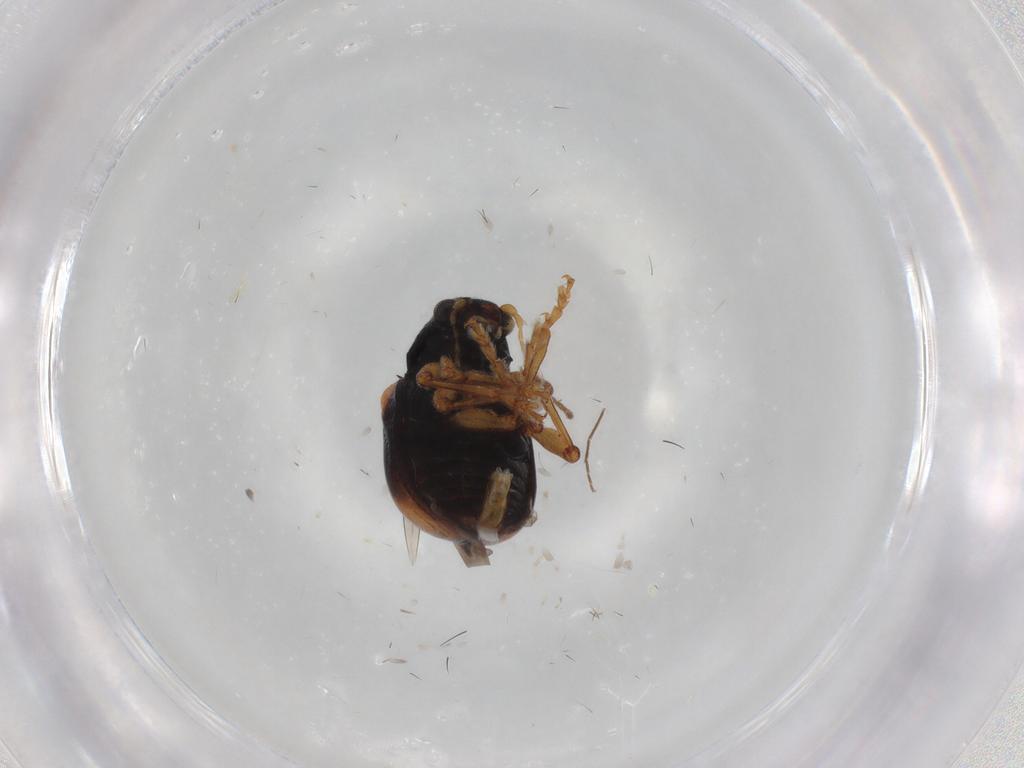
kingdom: Animalia
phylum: Arthropoda
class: Insecta
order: Coleoptera
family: Chrysomelidae
